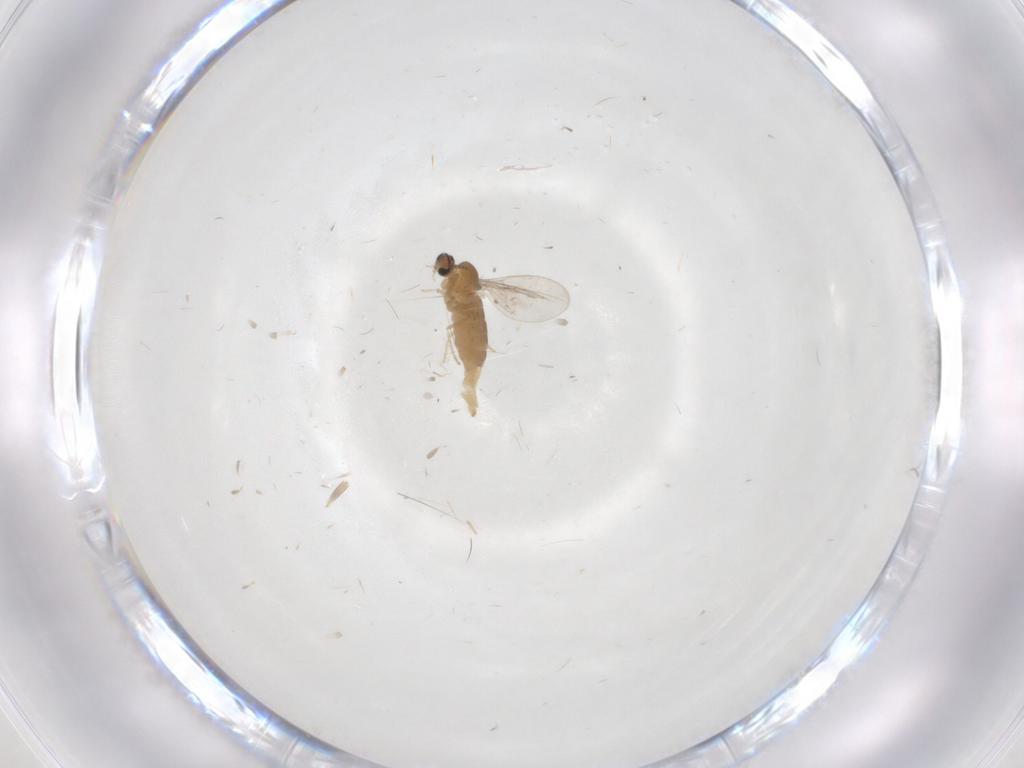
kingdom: Animalia
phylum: Arthropoda
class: Insecta
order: Diptera
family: Cecidomyiidae
